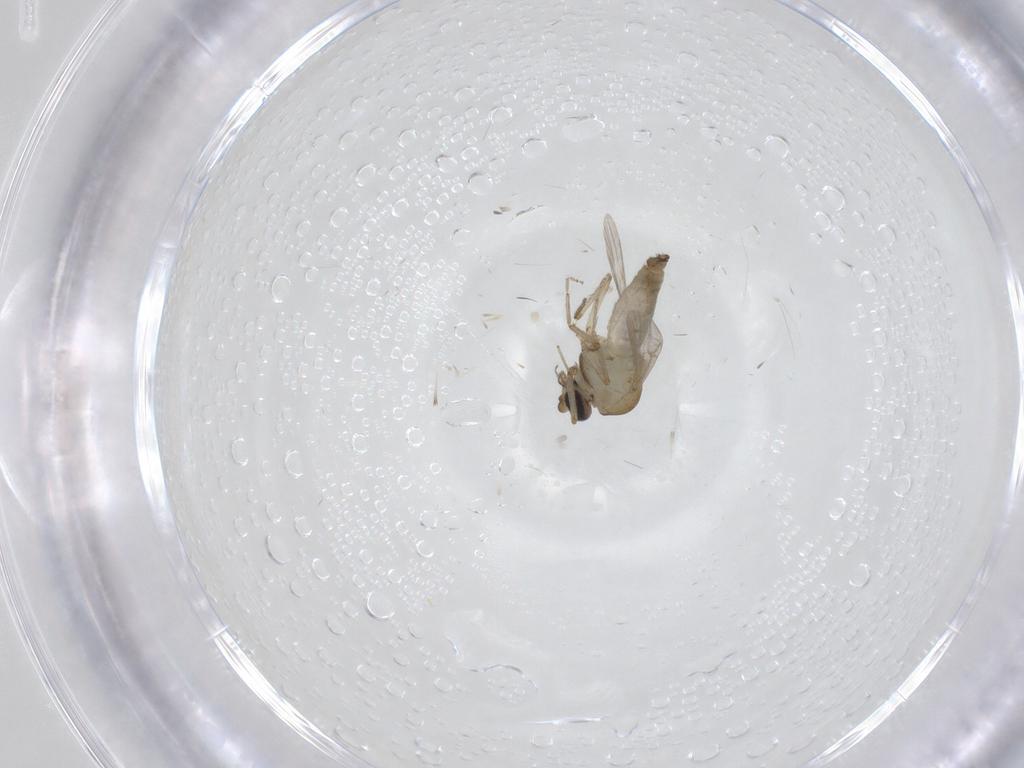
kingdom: Animalia
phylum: Arthropoda
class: Insecta
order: Diptera
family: Ceratopogonidae
